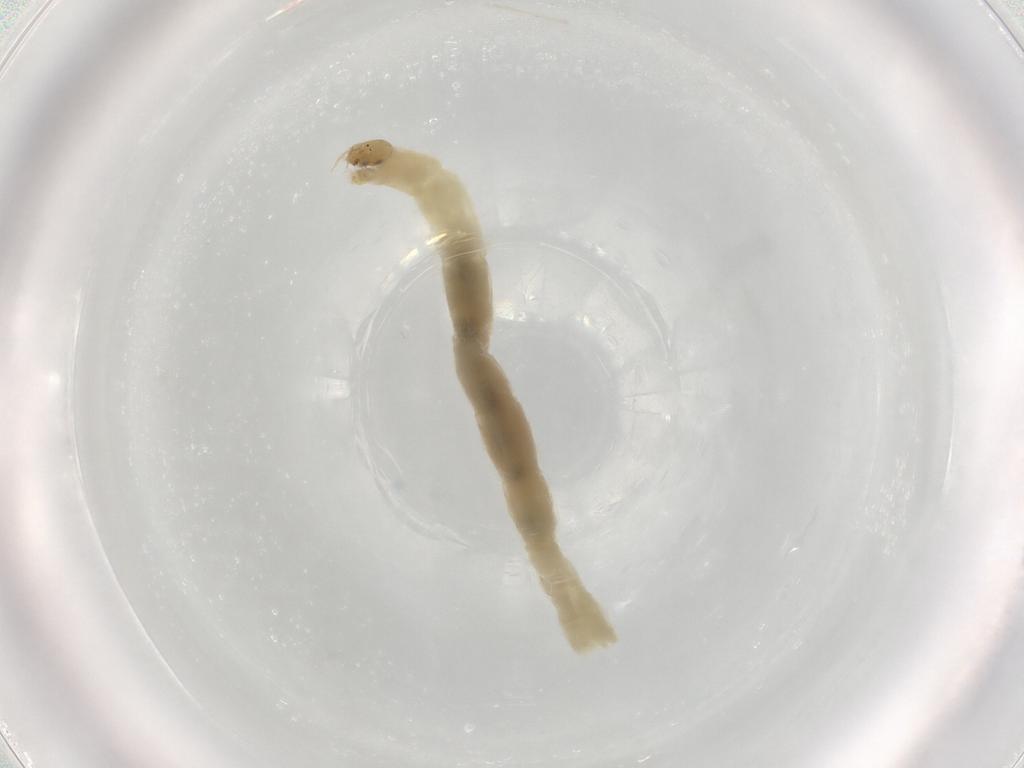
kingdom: Animalia
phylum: Arthropoda
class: Insecta
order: Diptera
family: Chironomidae
